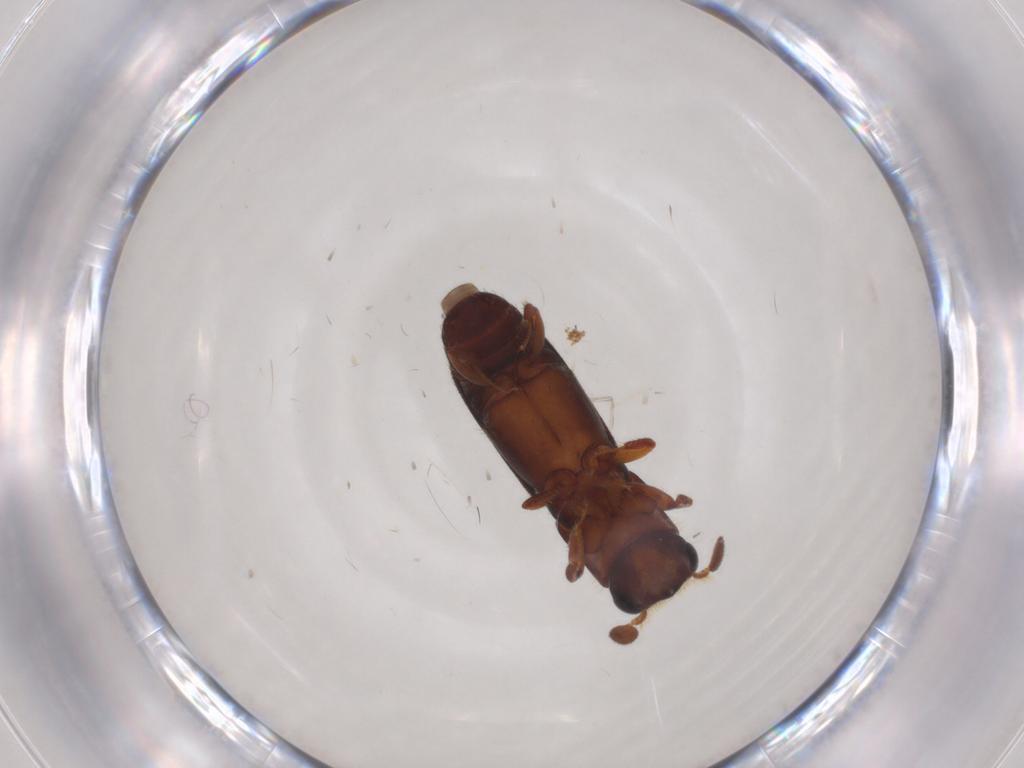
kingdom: Animalia
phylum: Arthropoda
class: Insecta
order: Coleoptera
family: Curculionidae
